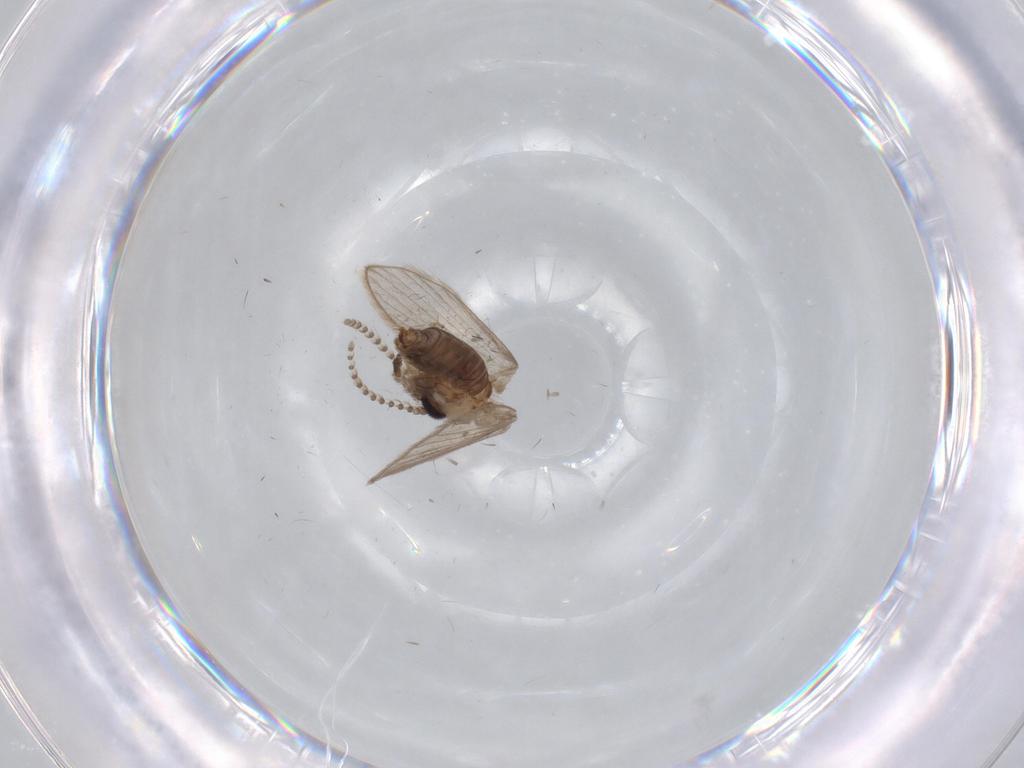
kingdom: Animalia
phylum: Arthropoda
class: Insecta
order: Diptera
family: Psychodidae
